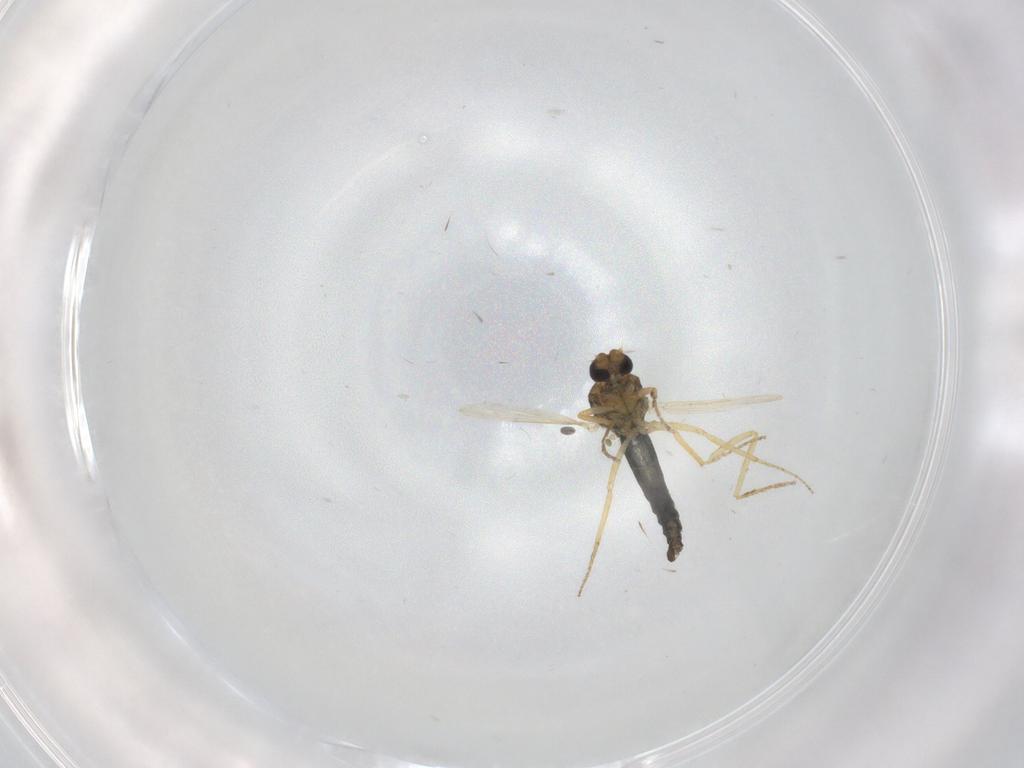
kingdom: Animalia
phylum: Arthropoda
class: Insecta
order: Diptera
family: Ceratopogonidae
